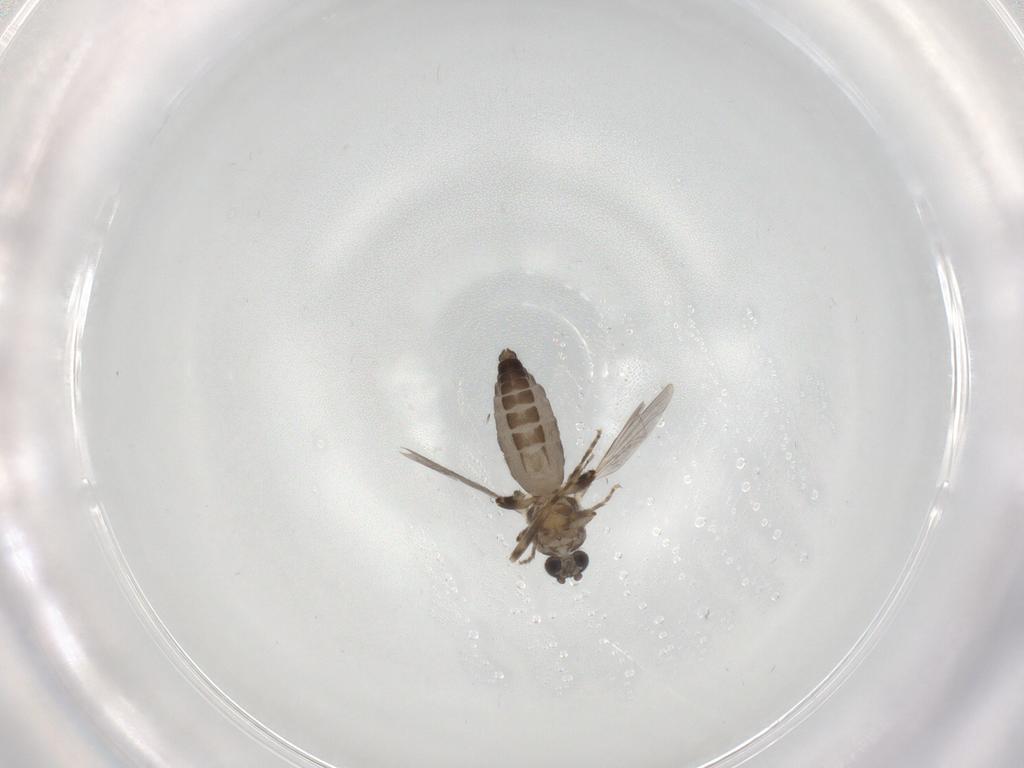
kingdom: Animalia
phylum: Arthropoda
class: Insecta
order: Diptera
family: Ceratopogonidae
